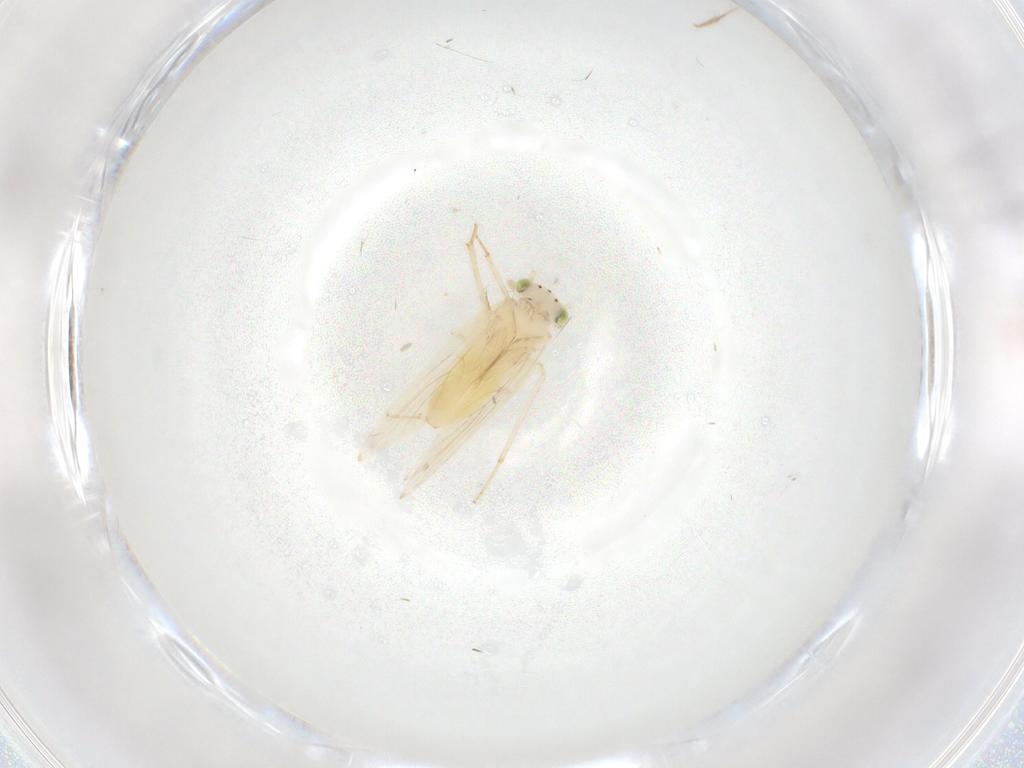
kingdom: Animalia
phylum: Arthropoda
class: Insecta
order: Psocodea
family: Lepidopsocidae
